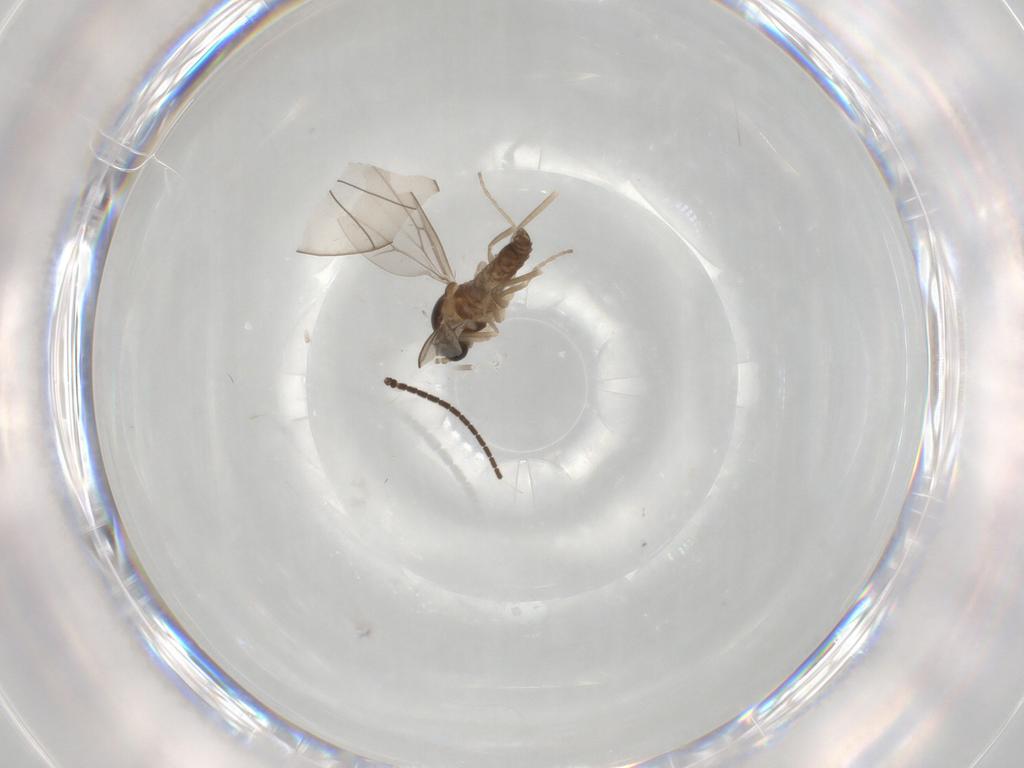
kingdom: Animalia
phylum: Arthropoda
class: Insecta
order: Diptera
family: Cecidomyiidae
